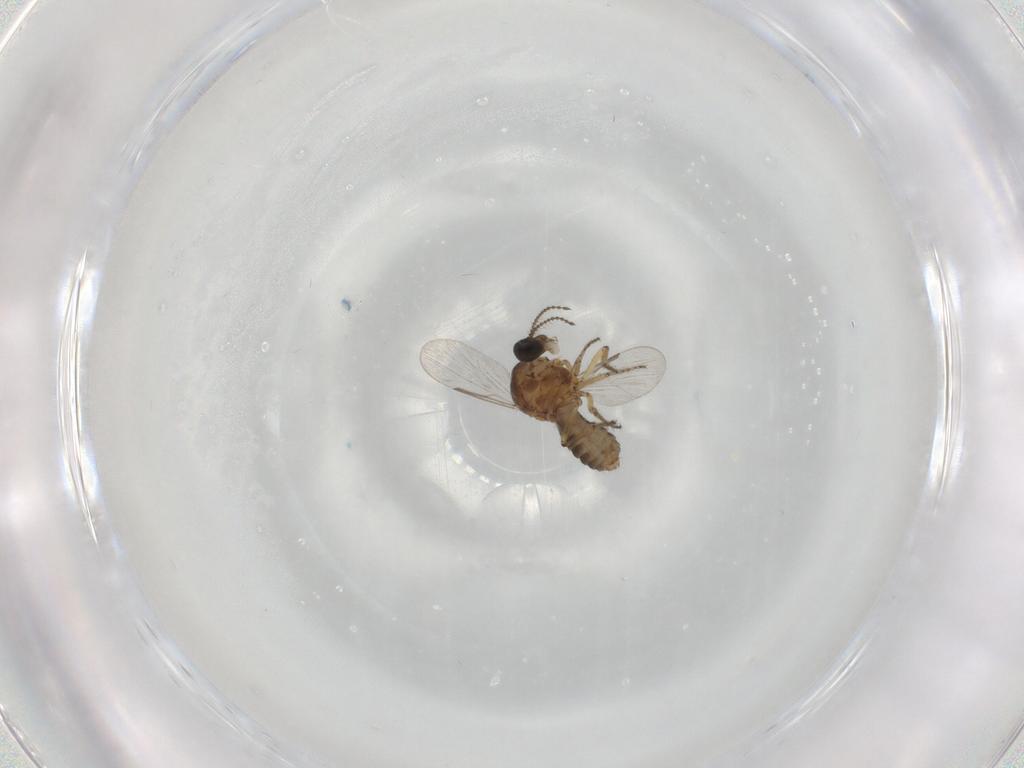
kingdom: Animalia
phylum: Arthropoda
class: Insecta
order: Diptera
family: Ceratopogonidae
